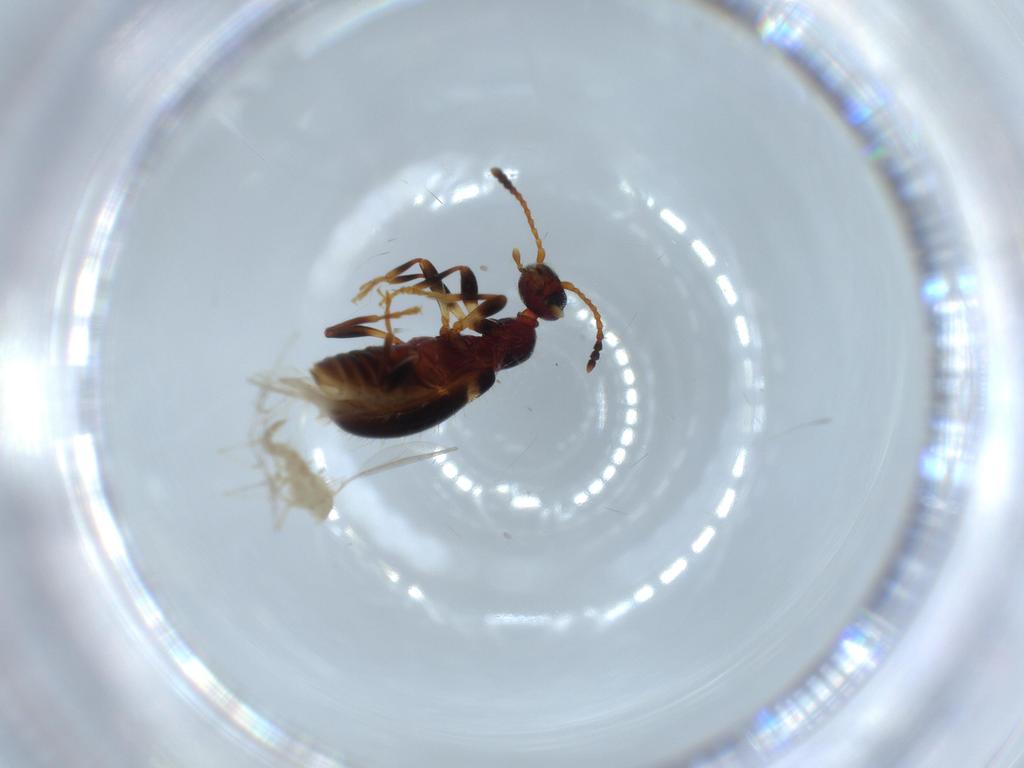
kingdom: Animalia
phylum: Arthropoda
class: Insecta
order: Coleoptera
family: Anthicidae
